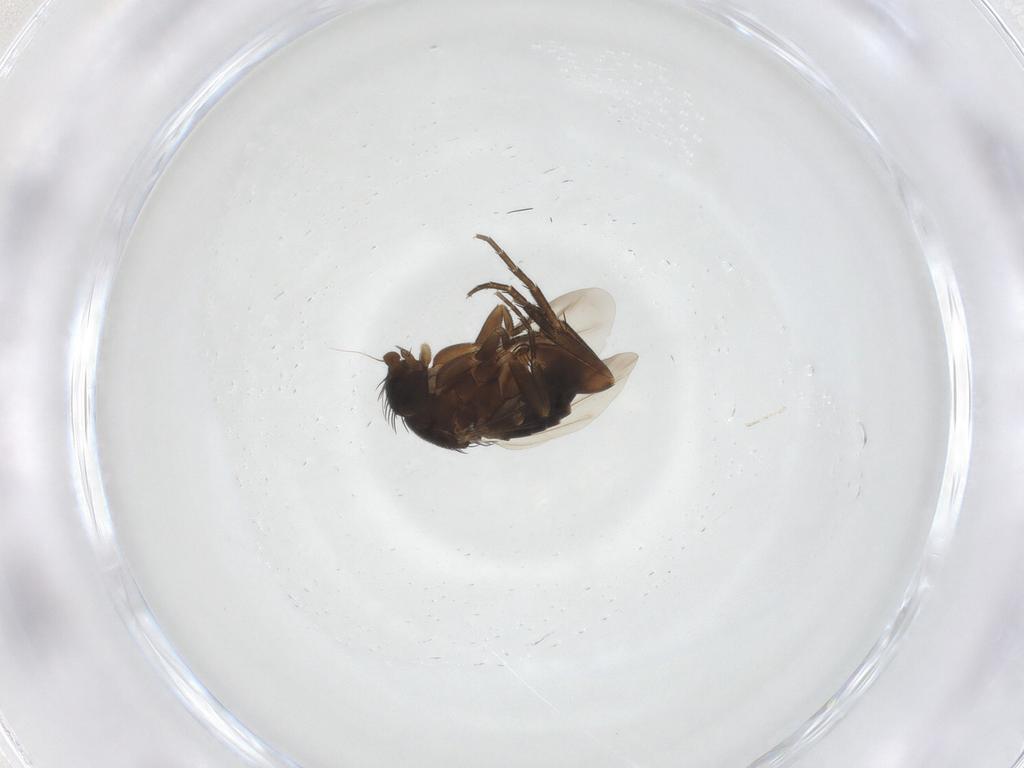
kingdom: Animalia
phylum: Arthropoda
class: Insecta
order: Diptera
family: Phoridae
